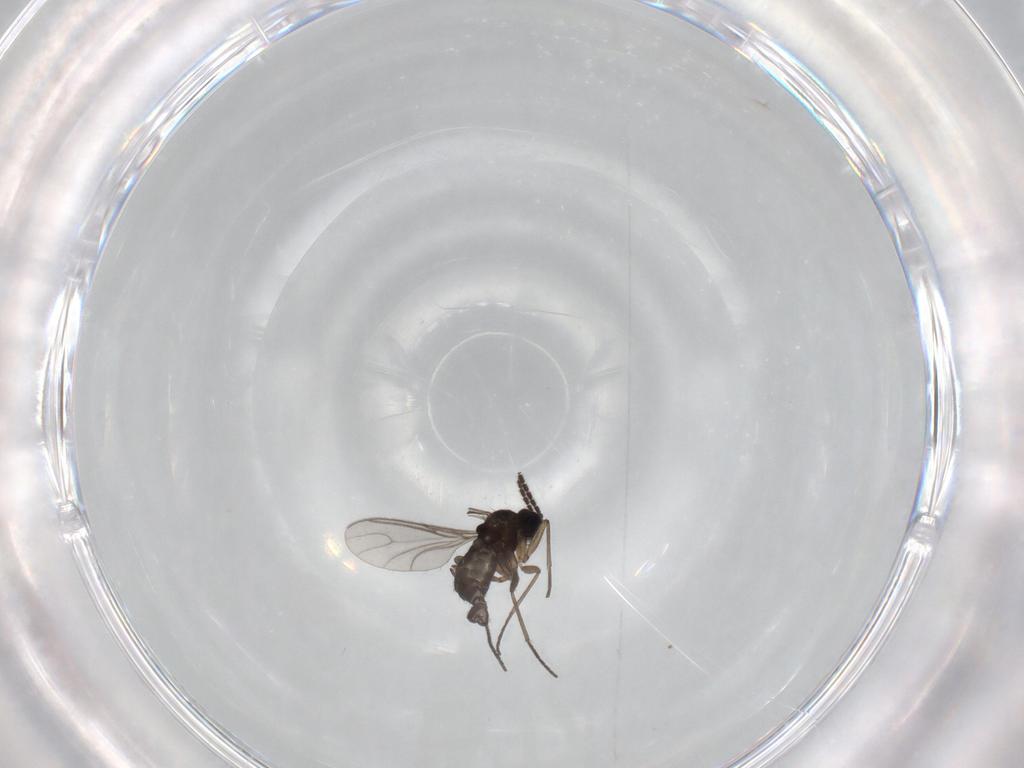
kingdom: Animalia
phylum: Arthropoda
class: Insecta
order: Diptera
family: Sciaridae
